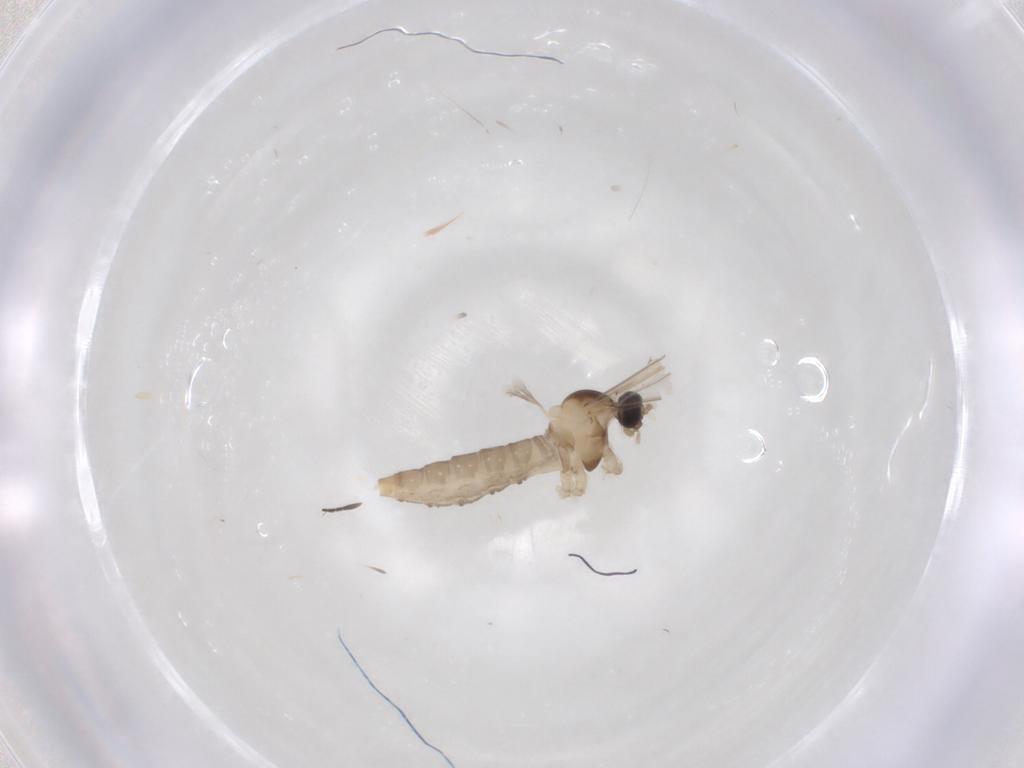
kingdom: Animalia
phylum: Arthropoda
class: Insecta
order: Diptera
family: Cecidomyiidae
